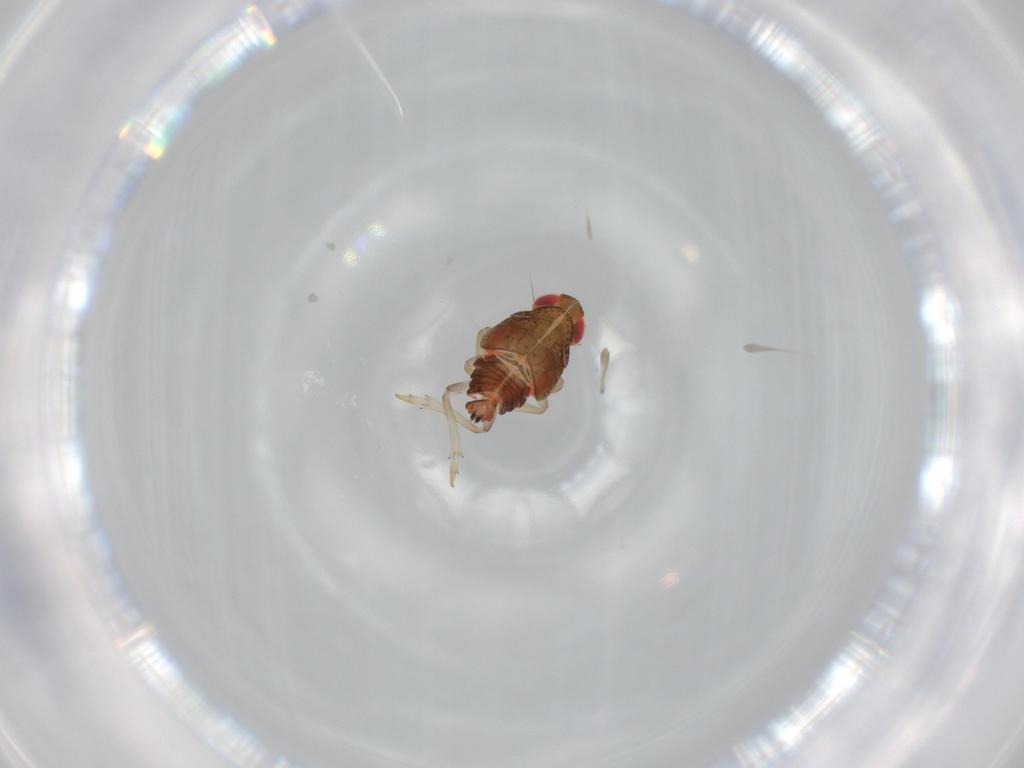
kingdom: Animalia
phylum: Arthropoda
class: Insecta
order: Hemiptera
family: Issidae
